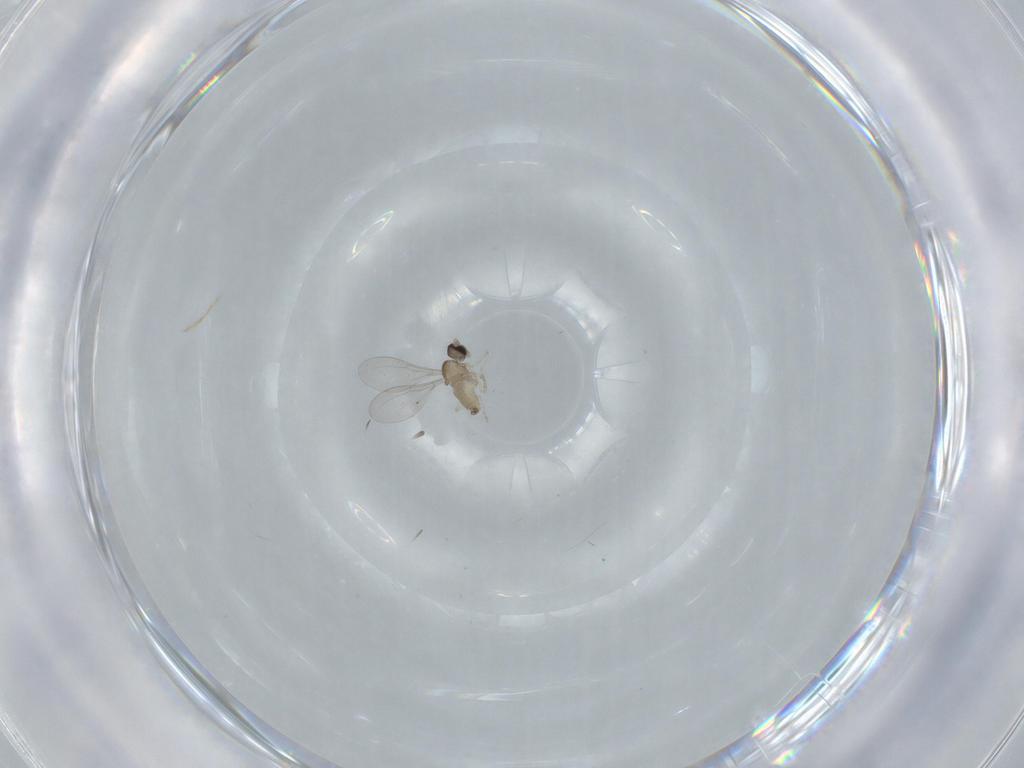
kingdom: Animalia
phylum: Arthropoda
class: Insecta
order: Diptera
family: Cecidomyiidae
